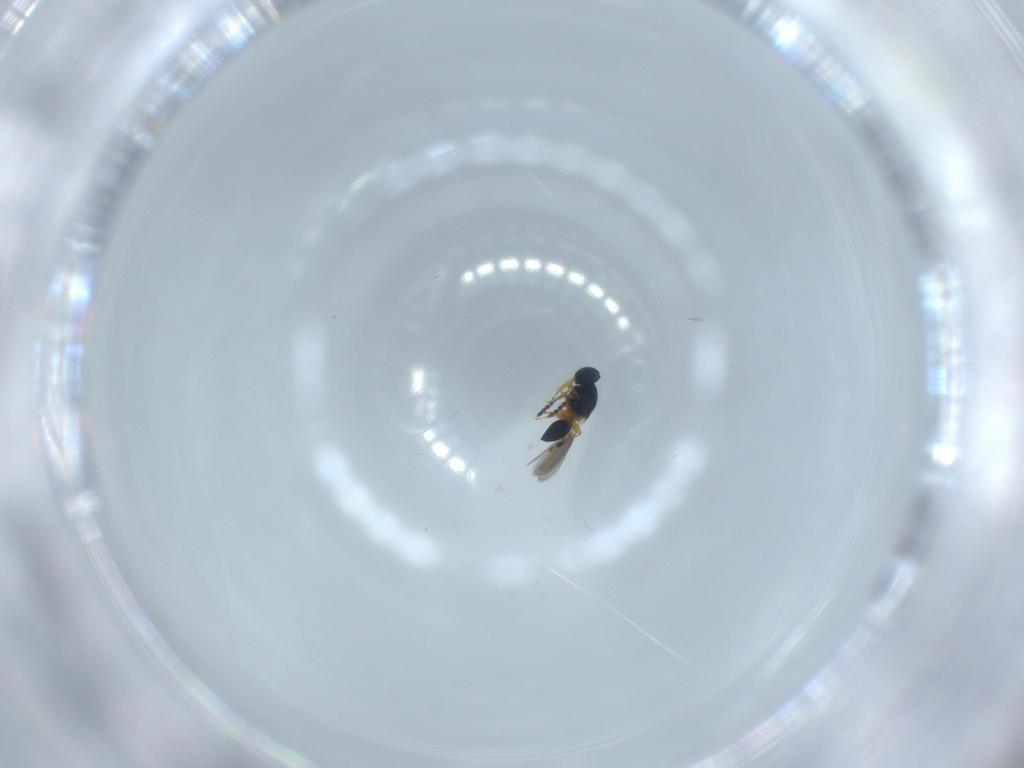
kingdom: Animalia
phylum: Arthropoda
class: Insecta
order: Hymenoptera
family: Platygastridae
